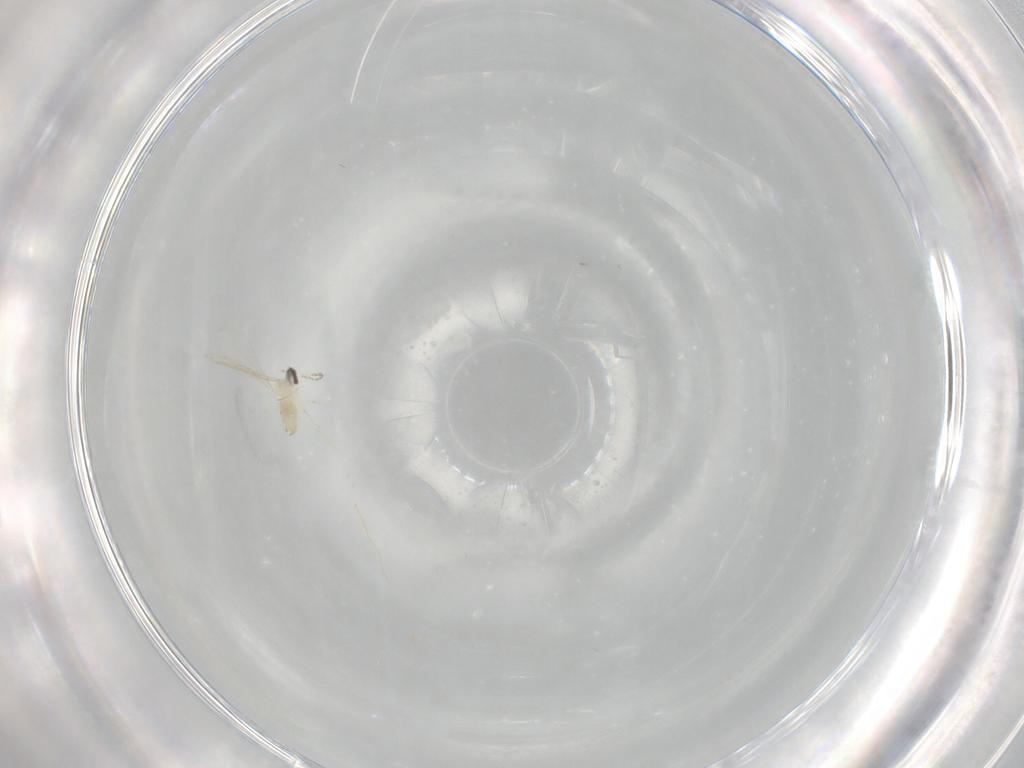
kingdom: Animalia
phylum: Arthropoda
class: Insecta
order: Diptera
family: Cecidomyiidae
